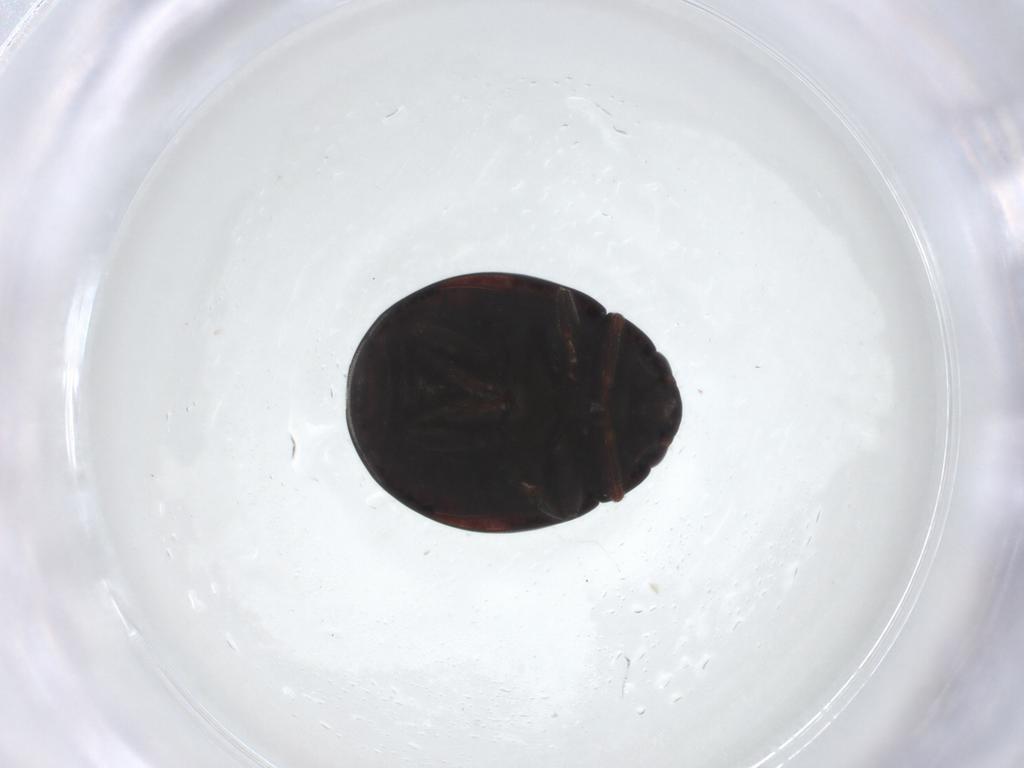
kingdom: Animalia
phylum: Arthropoda
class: Insecta
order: Coleoptera
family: Coccinellidae
